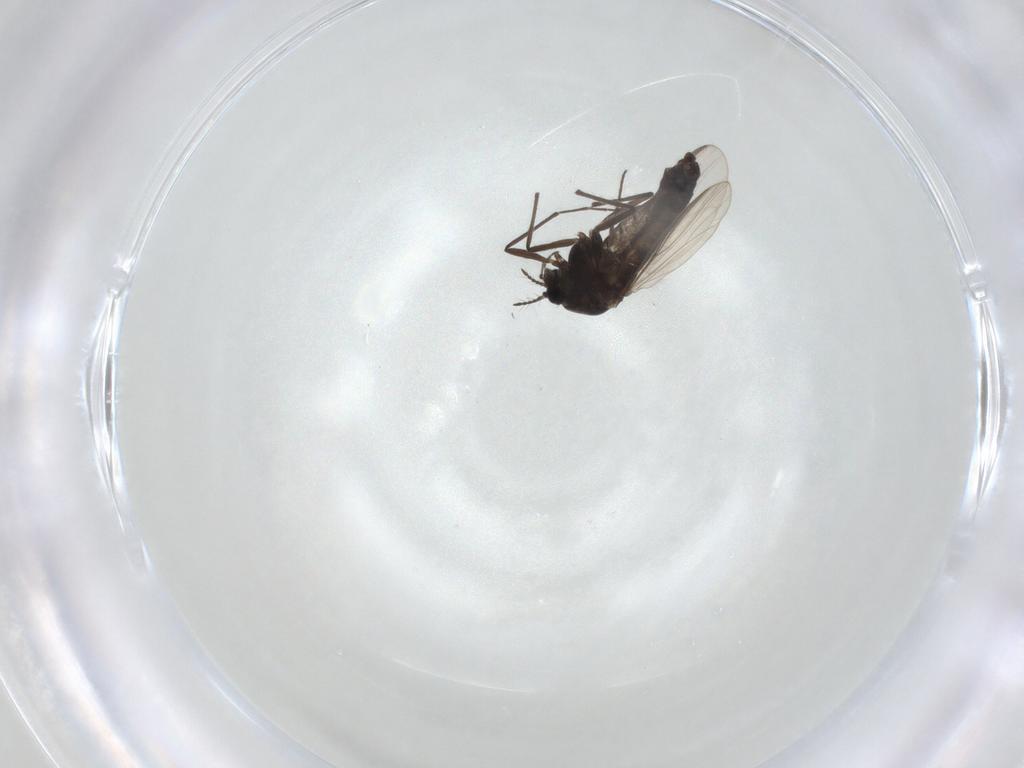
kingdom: Animalia
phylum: Arthropoda
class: Insecta
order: Diptera
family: Chironomidae
